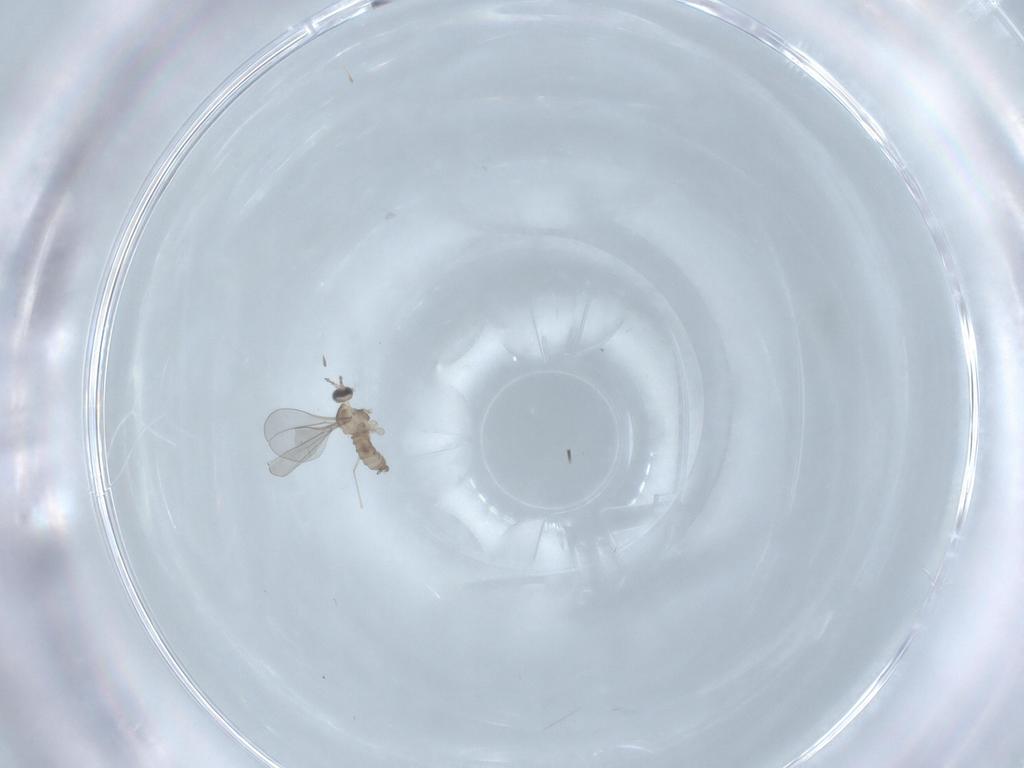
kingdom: Animalia
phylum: Arthropoda
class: Insecta
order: Diptera
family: Cecidomyiidae
